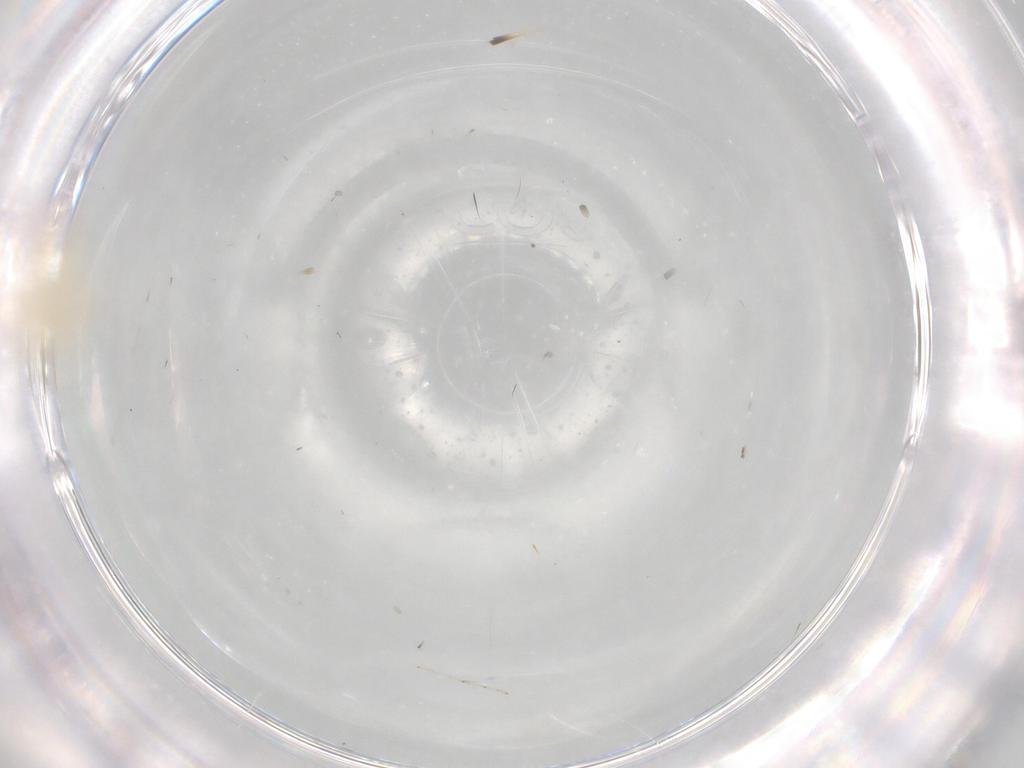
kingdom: Animalia
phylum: Arthropoda
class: Insecta
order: Hemiptera
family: Flatidae
